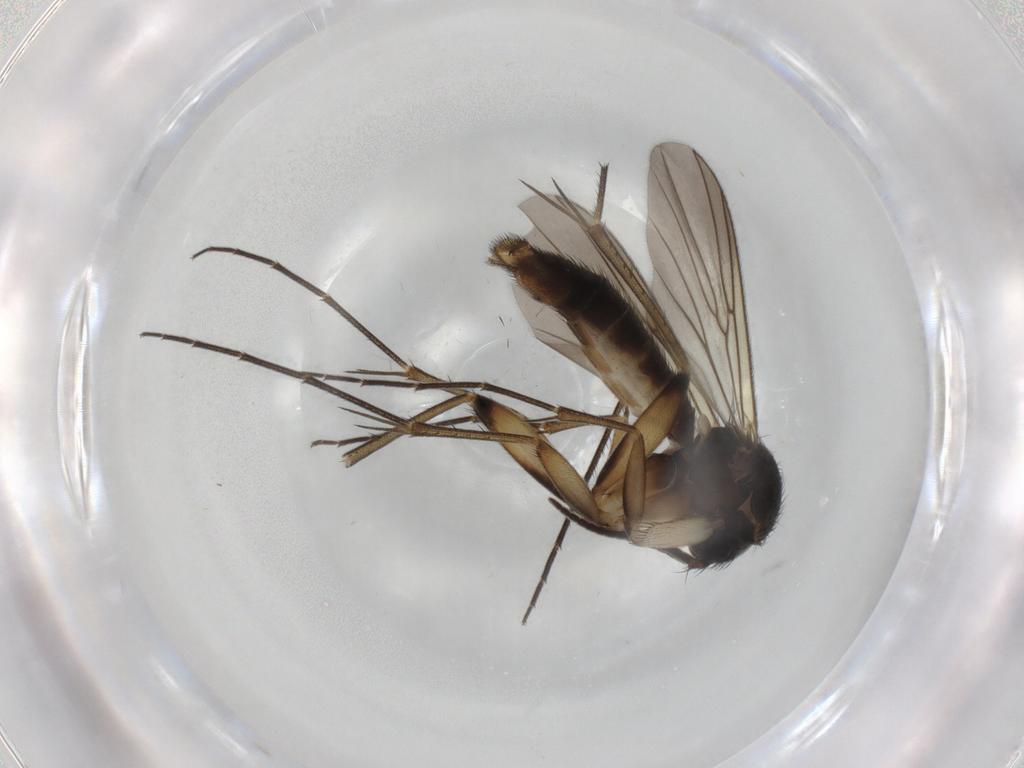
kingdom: Animalia
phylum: Arthropoda
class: Insecta
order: Diptera
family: Mycetophilidae
